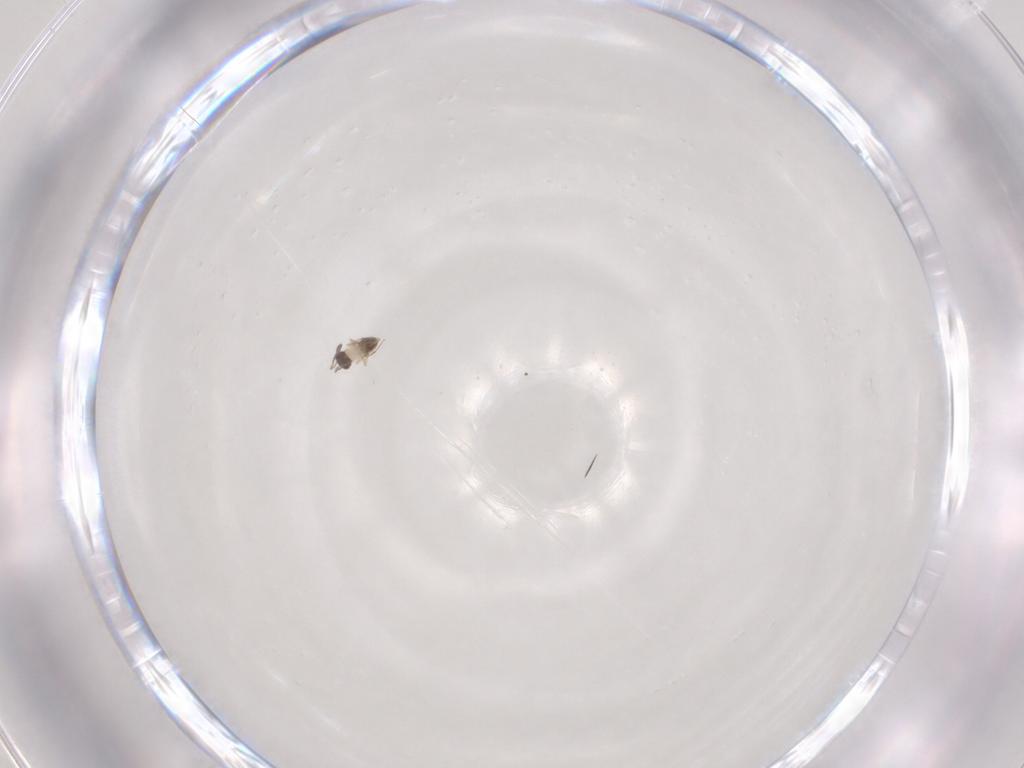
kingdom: Animalia
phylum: Arthropoda
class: Insecta
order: Hymenoptera
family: Mymaridae
